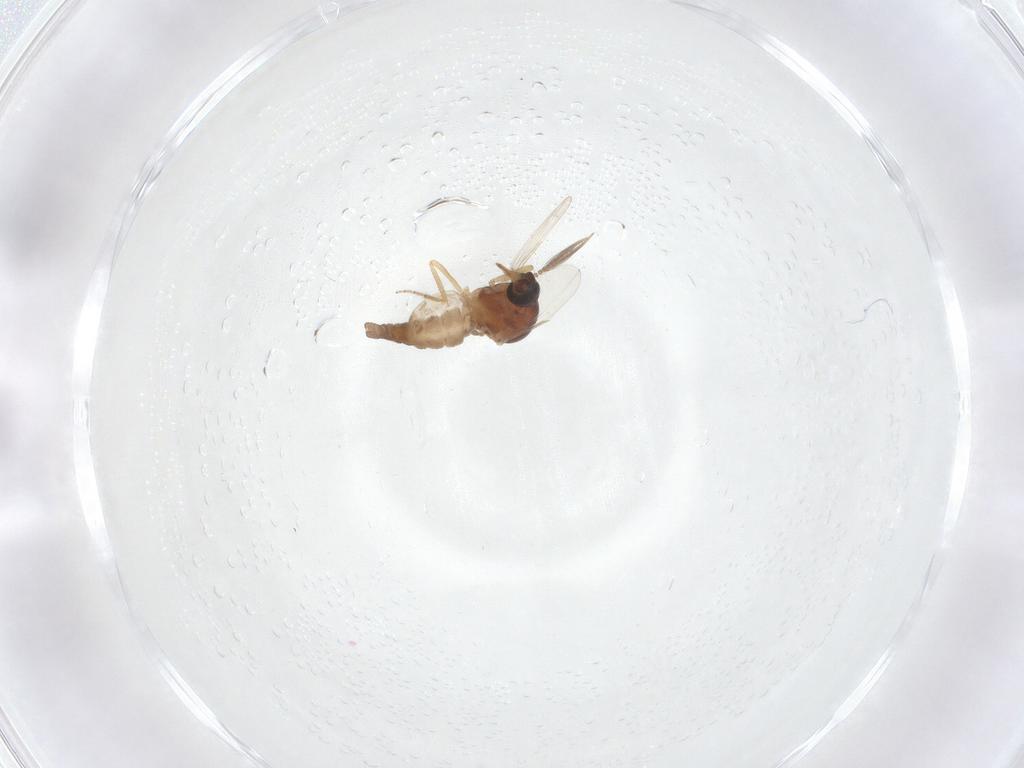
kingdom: Animalia
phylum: Arthropoda
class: Insecta
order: Diptera
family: Ceratopogonidae
